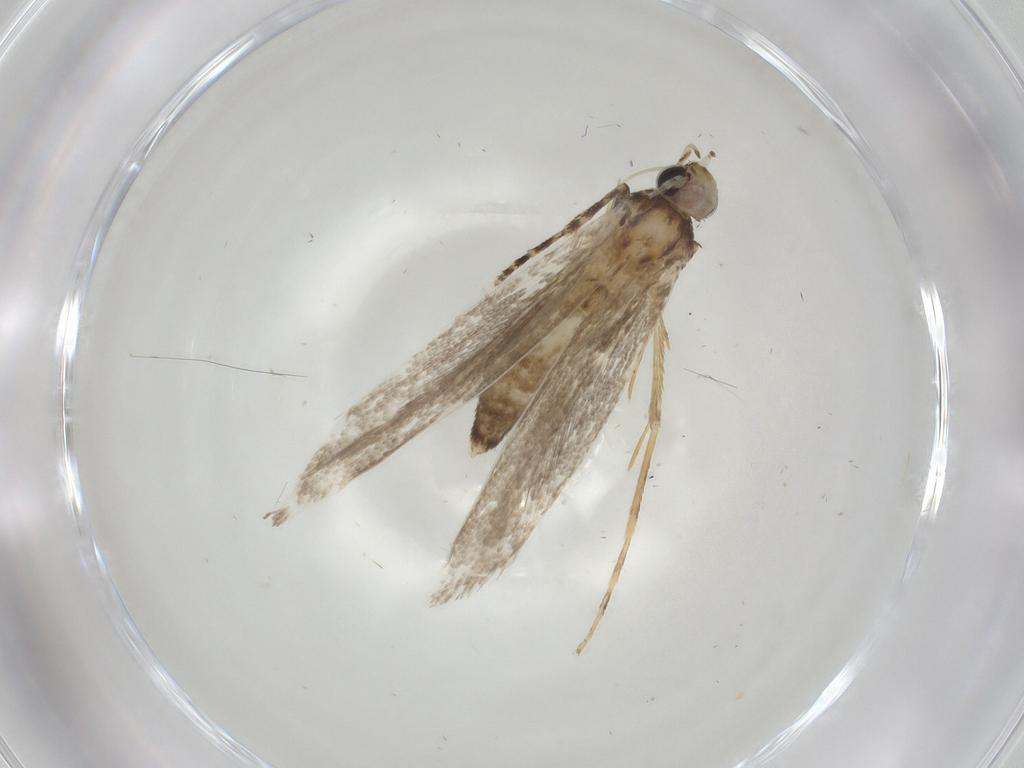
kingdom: Animalia
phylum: Arthropoda
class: Insecta
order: Lepidoptera
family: Gracillariidae
